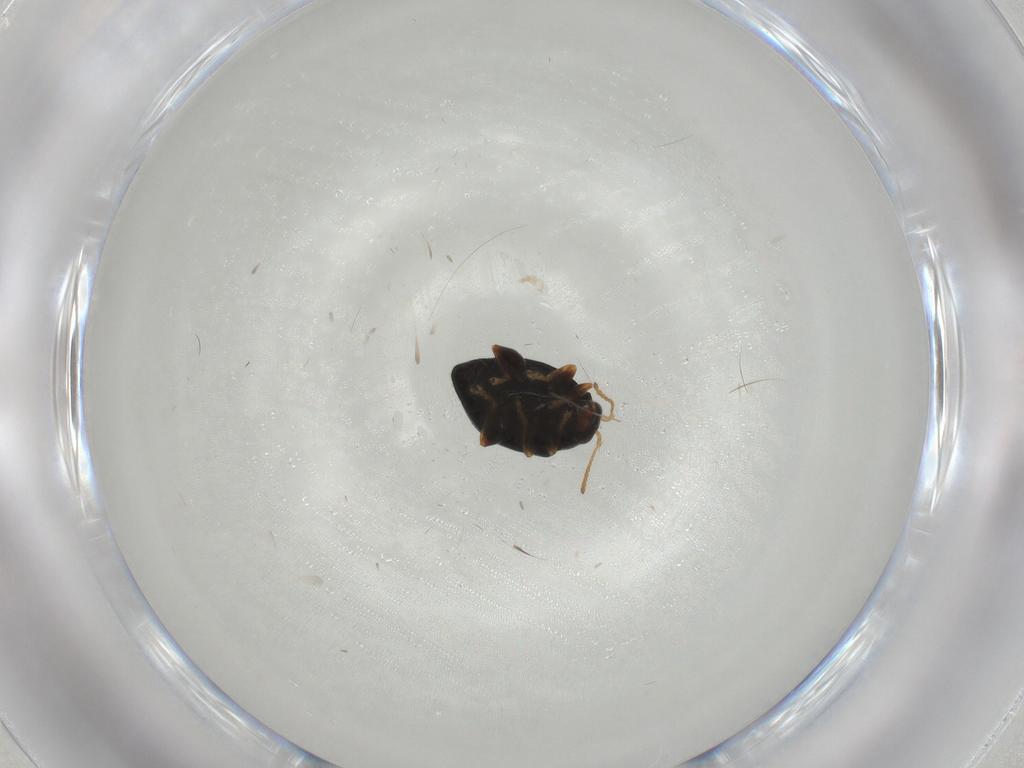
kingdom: Animalia
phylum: Arthropoda
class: Insecta
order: Coleoptera
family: Chrysomelidae
